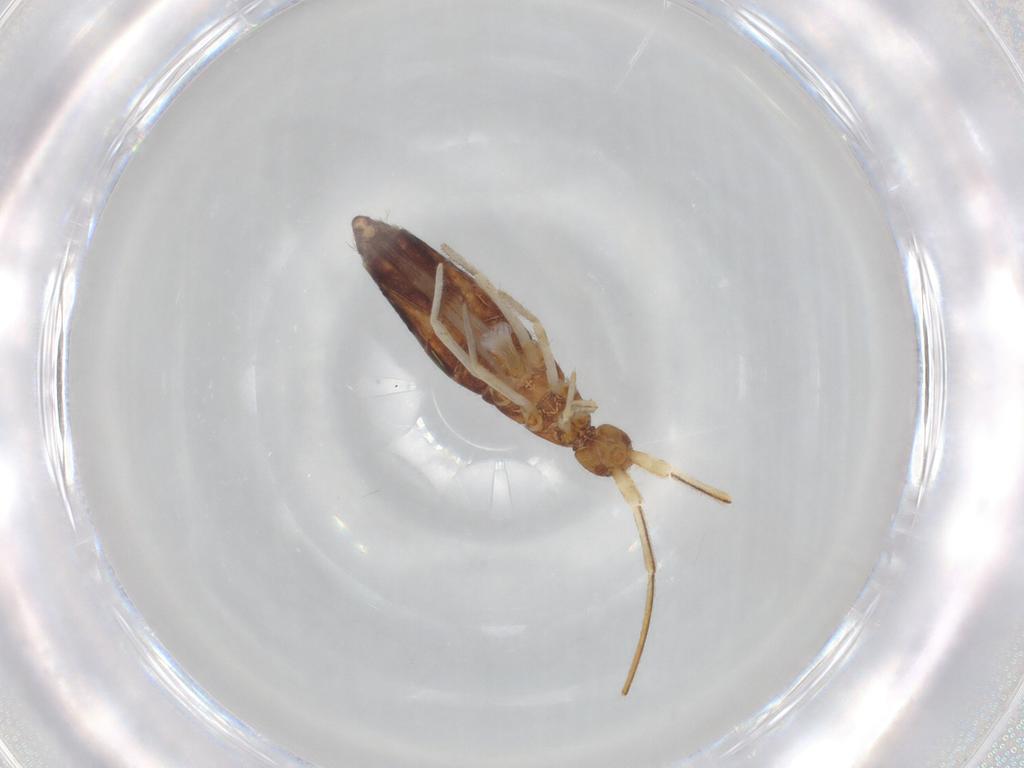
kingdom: Animalia
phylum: Arthropoda
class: Collembola
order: Entomobryomorpha
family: Entomobryidae
